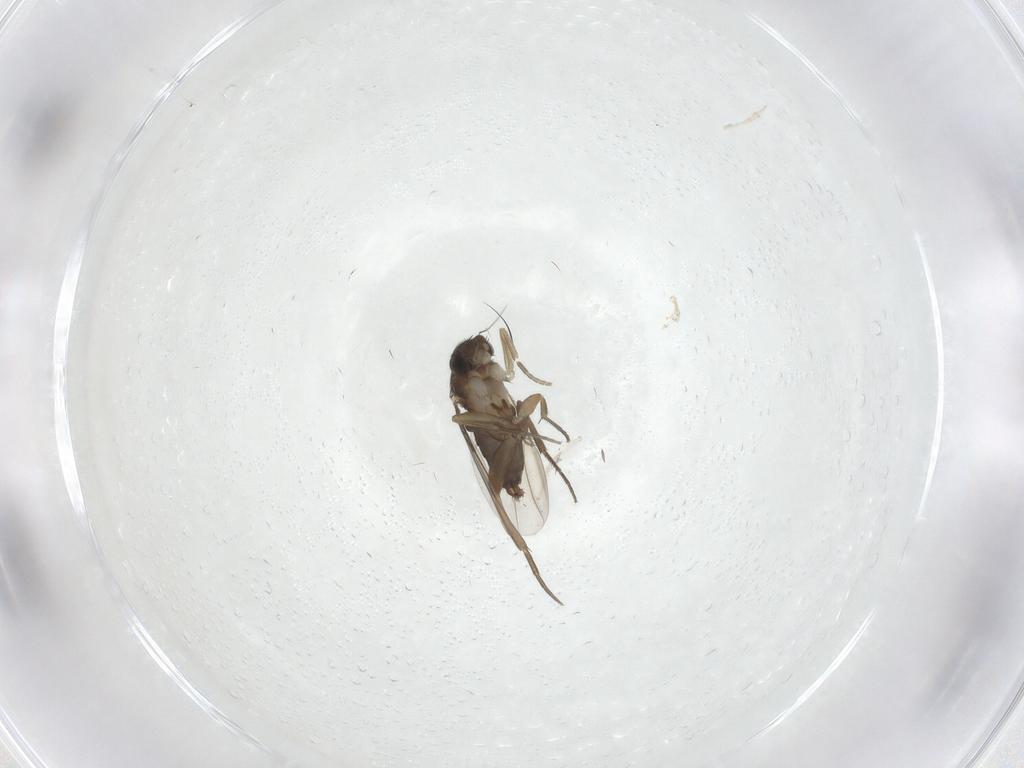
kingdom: Animalia
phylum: Arthropoda
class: Insecta
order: Diptera
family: Phoridae
